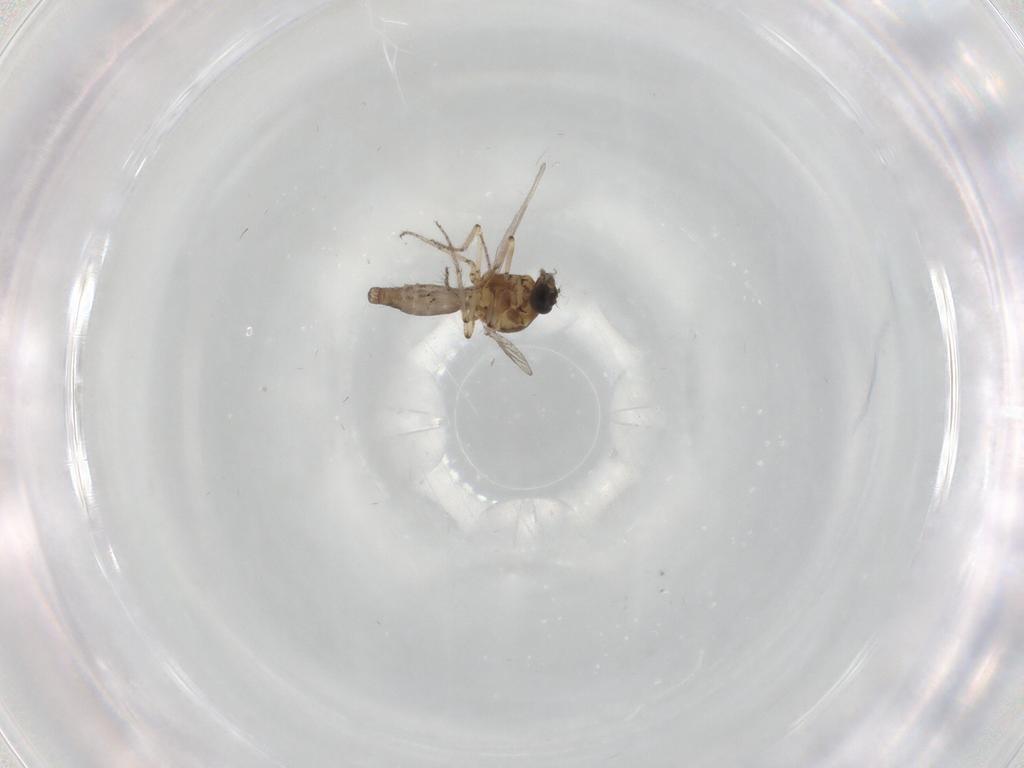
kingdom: Animalia
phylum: Arthropoda
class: Insecta
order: Diptera
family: Ceratopogonidae
